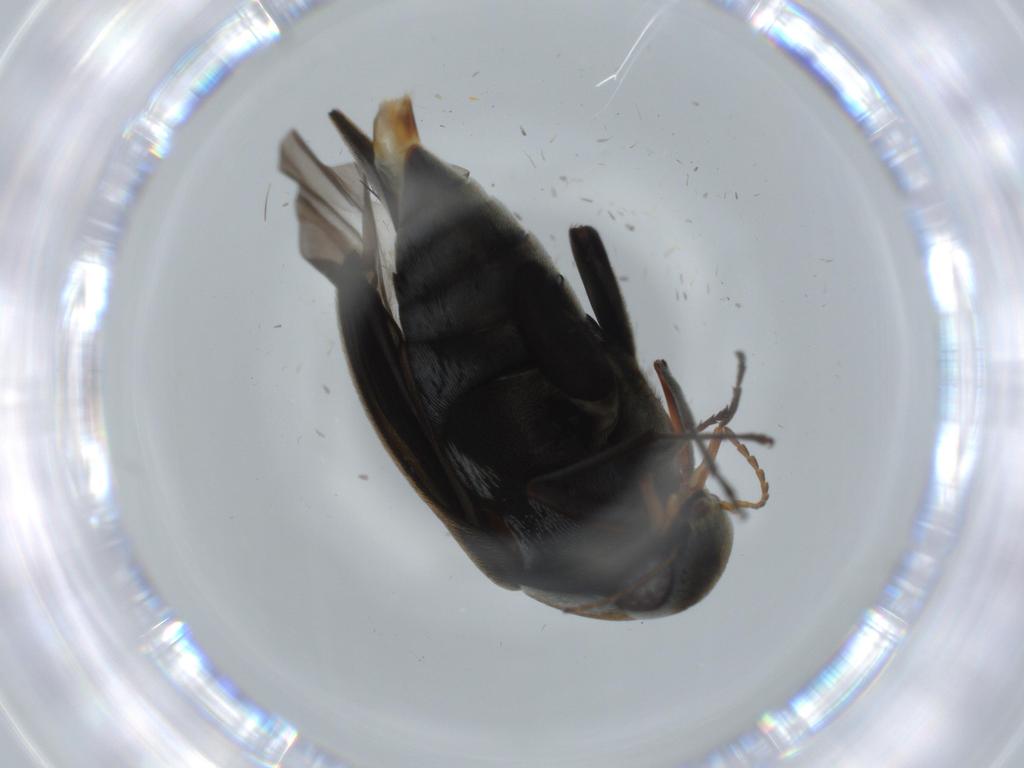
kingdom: Animalia
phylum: Arthropoda
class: Insecta
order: Coleoptera
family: Mordellidae
